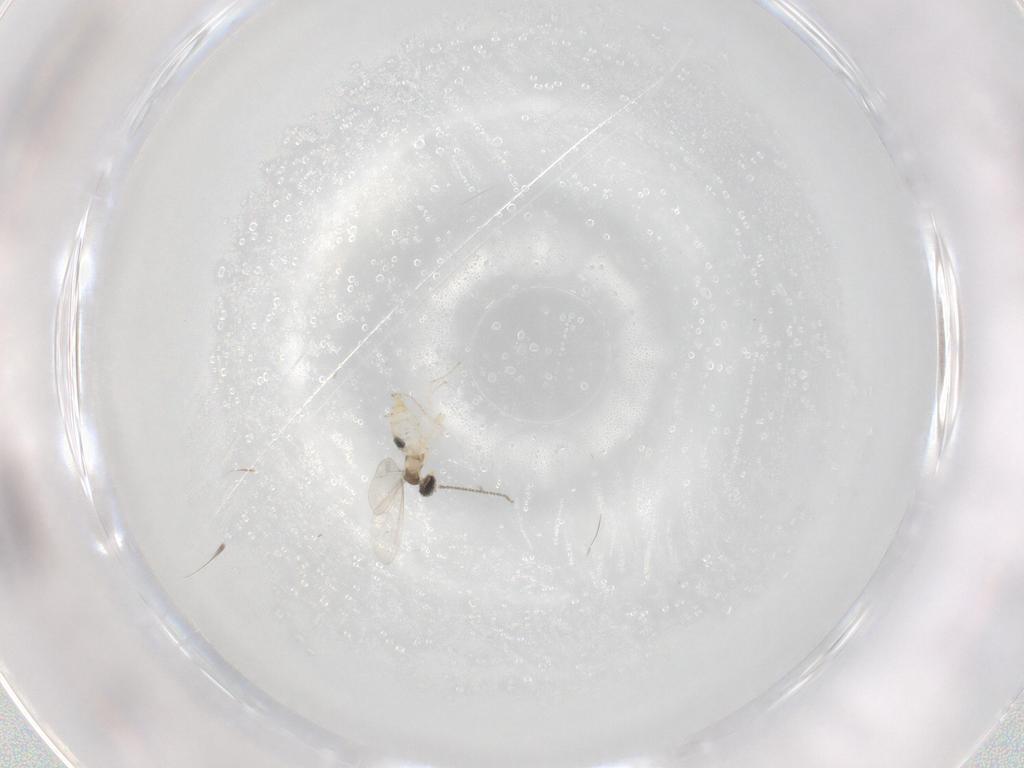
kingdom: Animalia
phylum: Arthropoda
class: Insecta
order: Diptera
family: Cecidomyiidae
